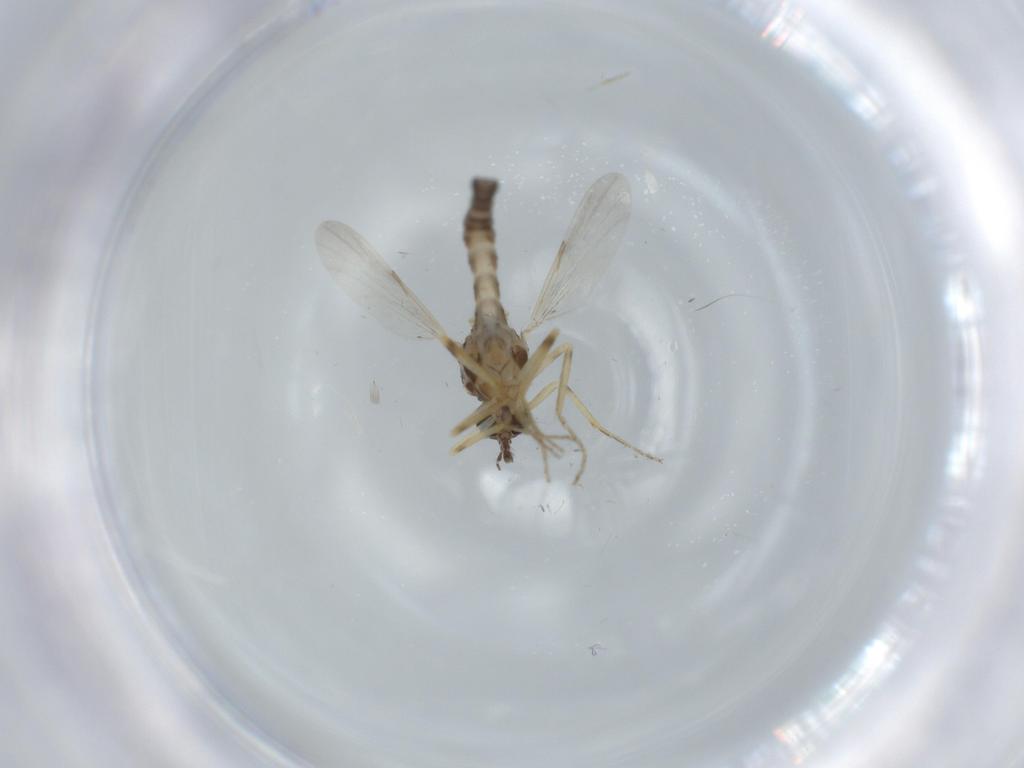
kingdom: Animalia
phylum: Arthropoda
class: Insecta
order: Diptera
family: Ceratopogonidae
